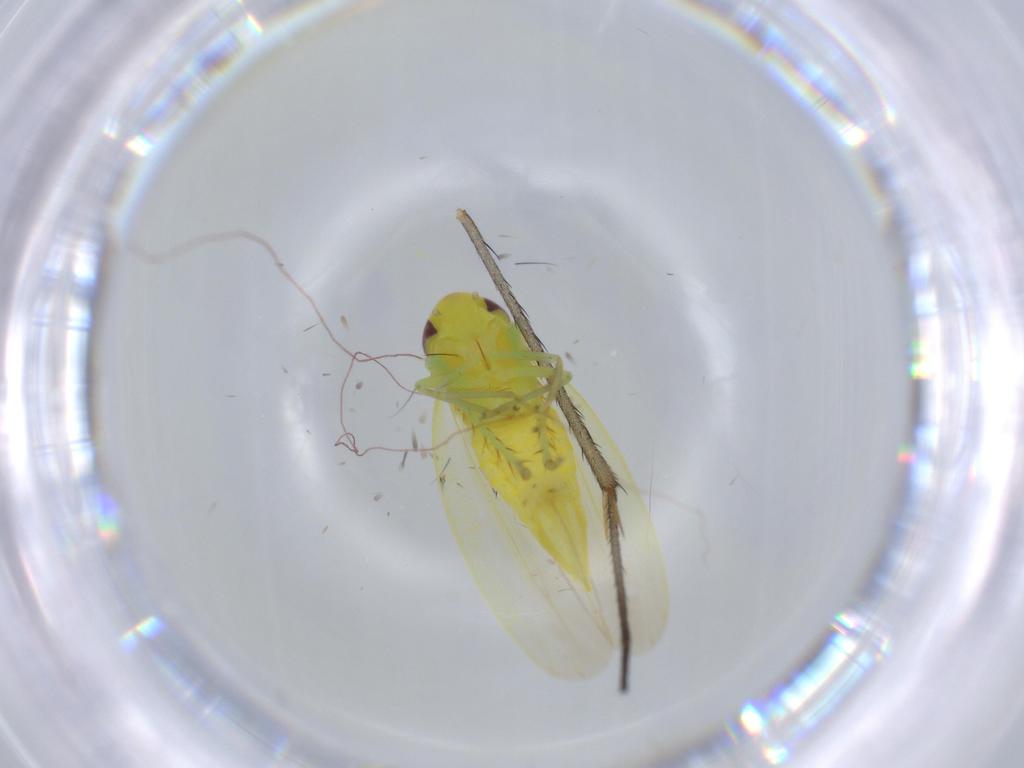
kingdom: Animalia
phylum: Arthropoda
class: Insecta
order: Hemiptera
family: Cicadellidae
